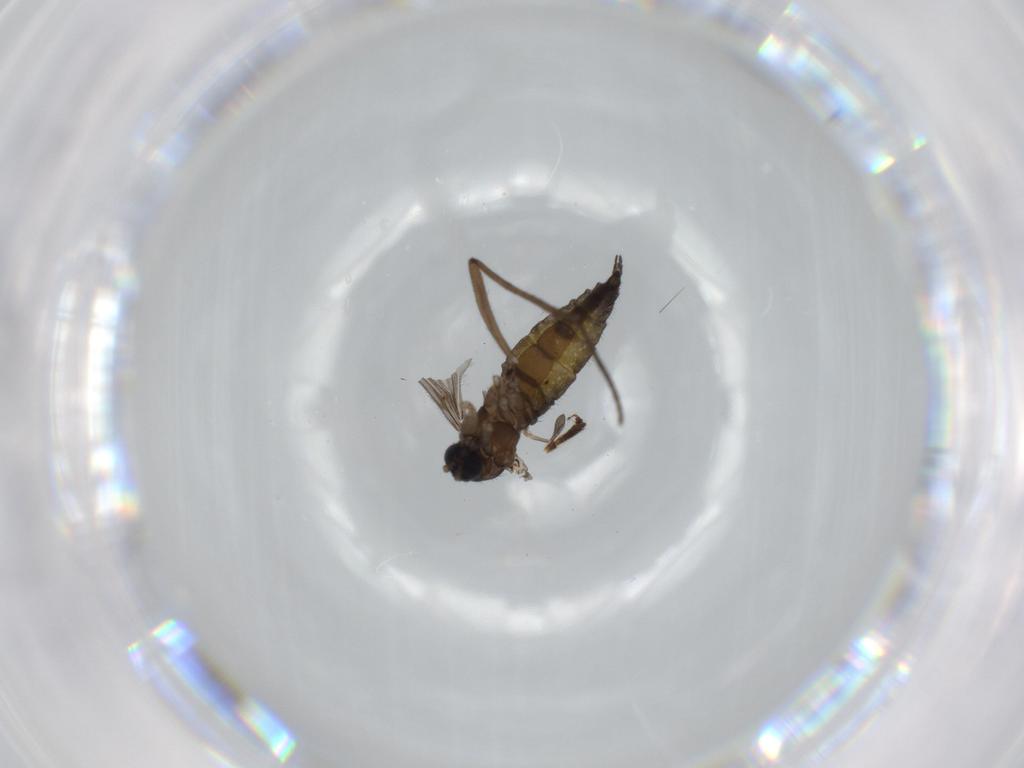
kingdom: Animalia
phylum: Arthropoda
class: Insecta
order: Diptera
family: Sciaridae
